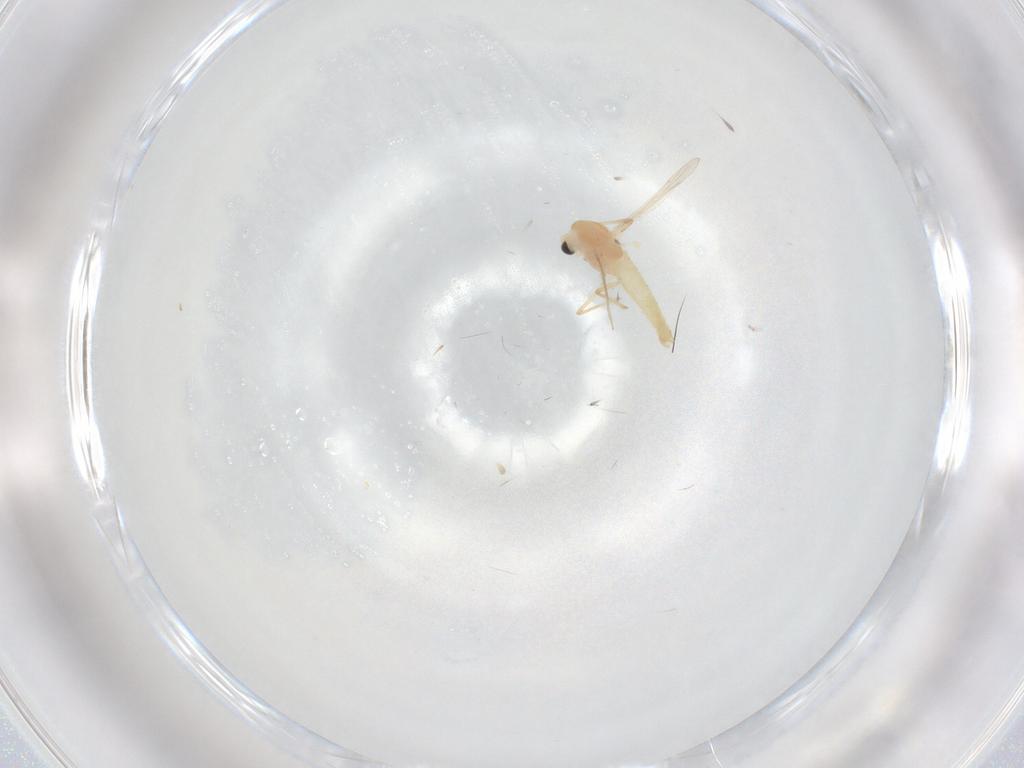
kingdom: Animalia
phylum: Arthropoda
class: Insecta
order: Diptera
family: Chironomidae
